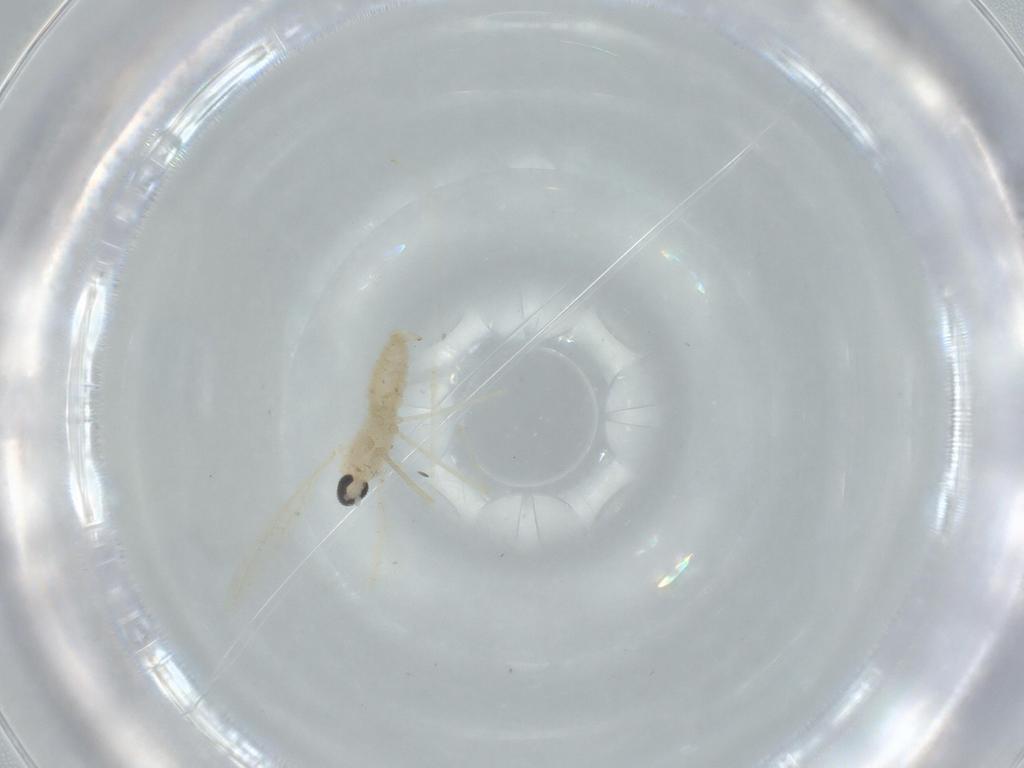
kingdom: Animalia
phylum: Arthropoda
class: Insecta
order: Diptera
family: Cecidomyiidae
